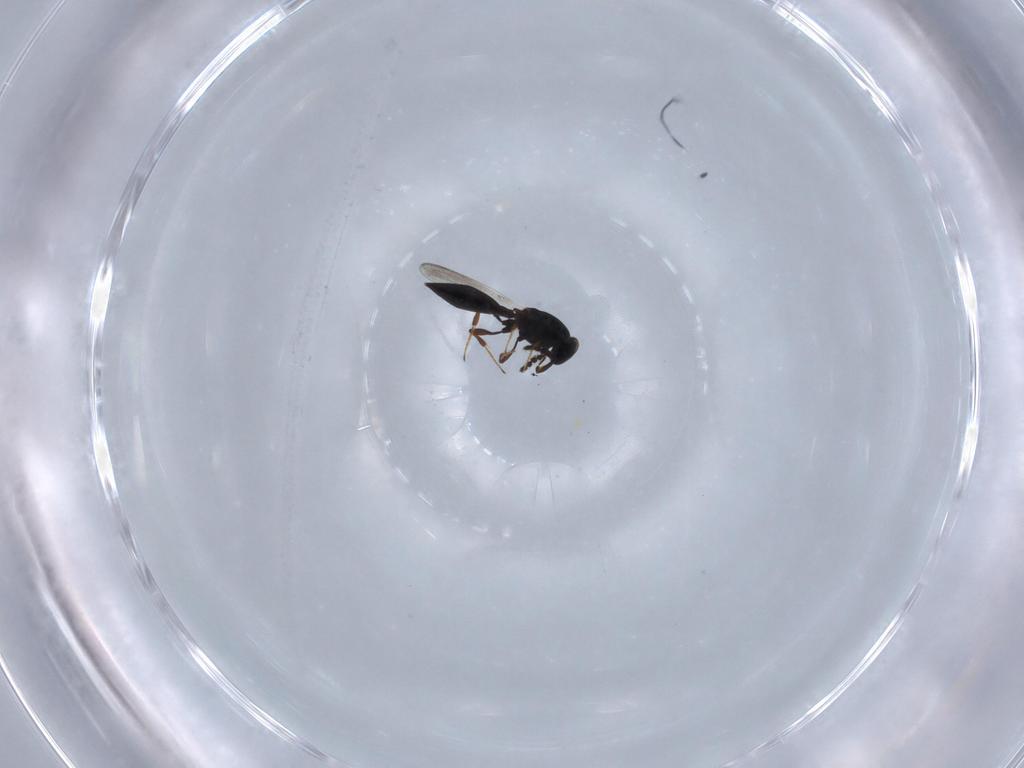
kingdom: Animalia
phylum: Arthropoda
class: Insecta
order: Hymenoptera
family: Platygastridae
